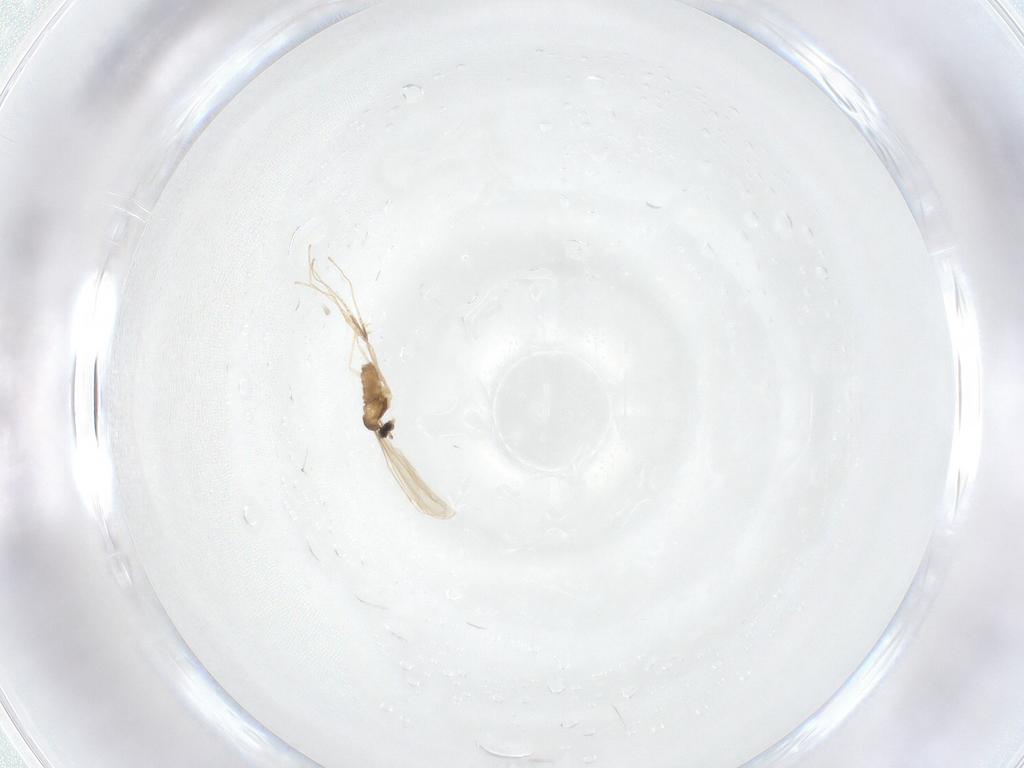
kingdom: Animalia
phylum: Arthropoda
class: Insecta
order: Diptera
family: Cecidomyiidae
